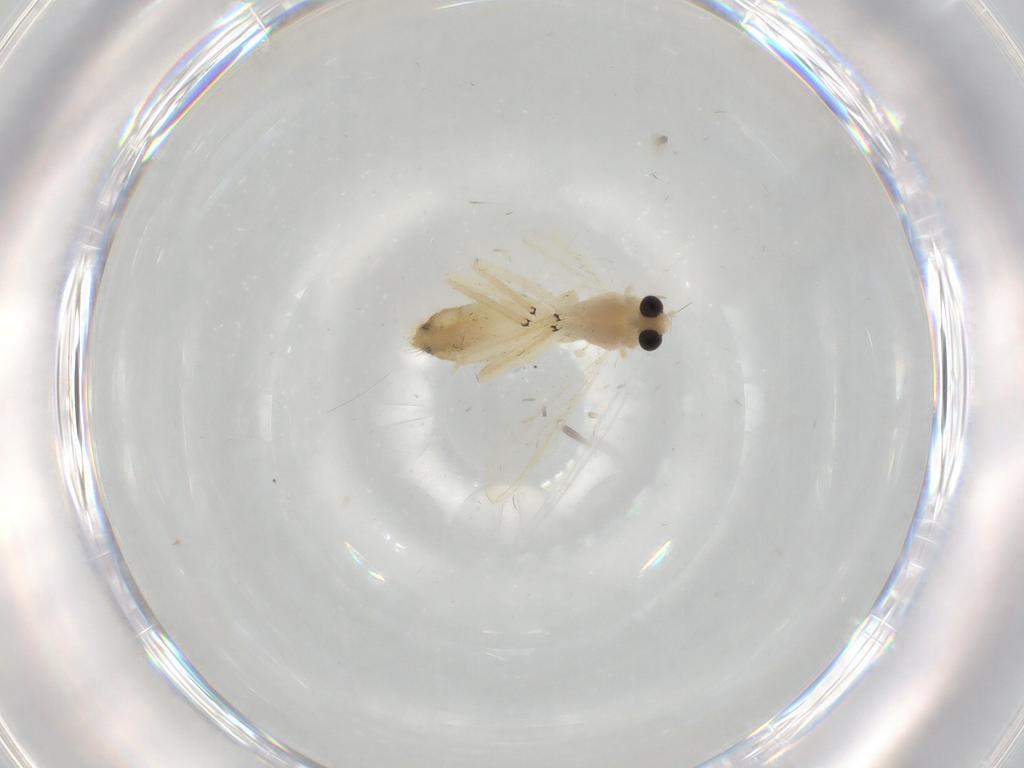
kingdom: Animalia
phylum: Arthropoda
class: Insecta
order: Diptera
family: Chironomidae
